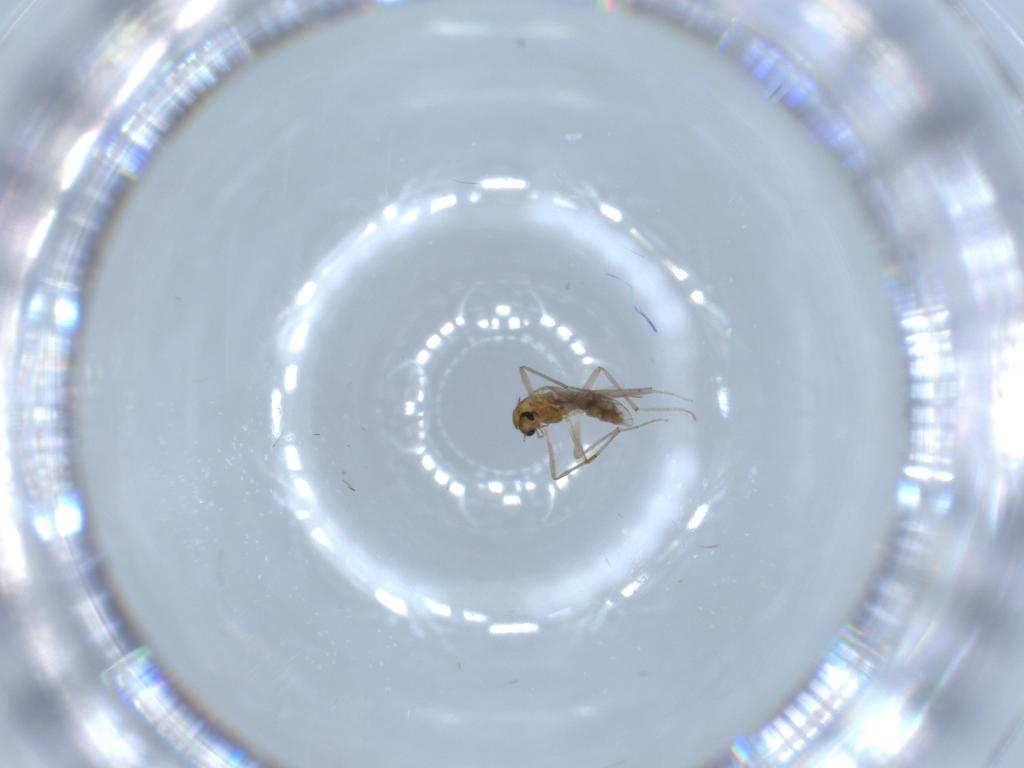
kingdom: Animalia
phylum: Arthropoda
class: Insecta
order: Diptera
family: Chironomidae
